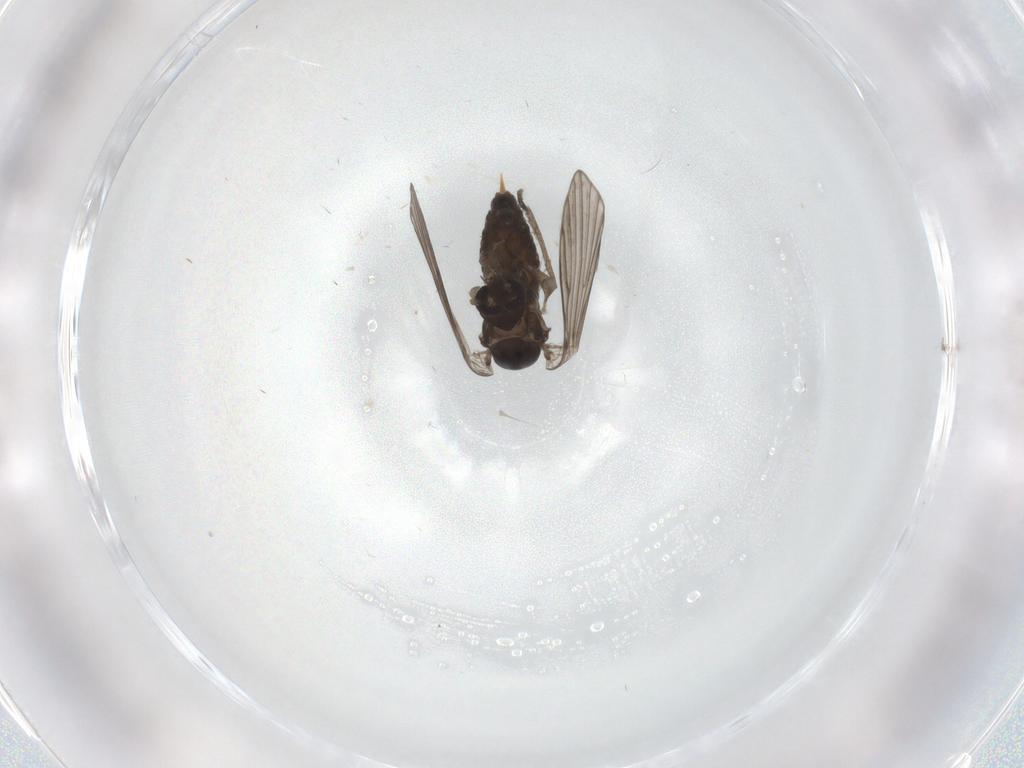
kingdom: Animalia
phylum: Arthropoda
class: Insecta
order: Diptera
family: Psychodidae
